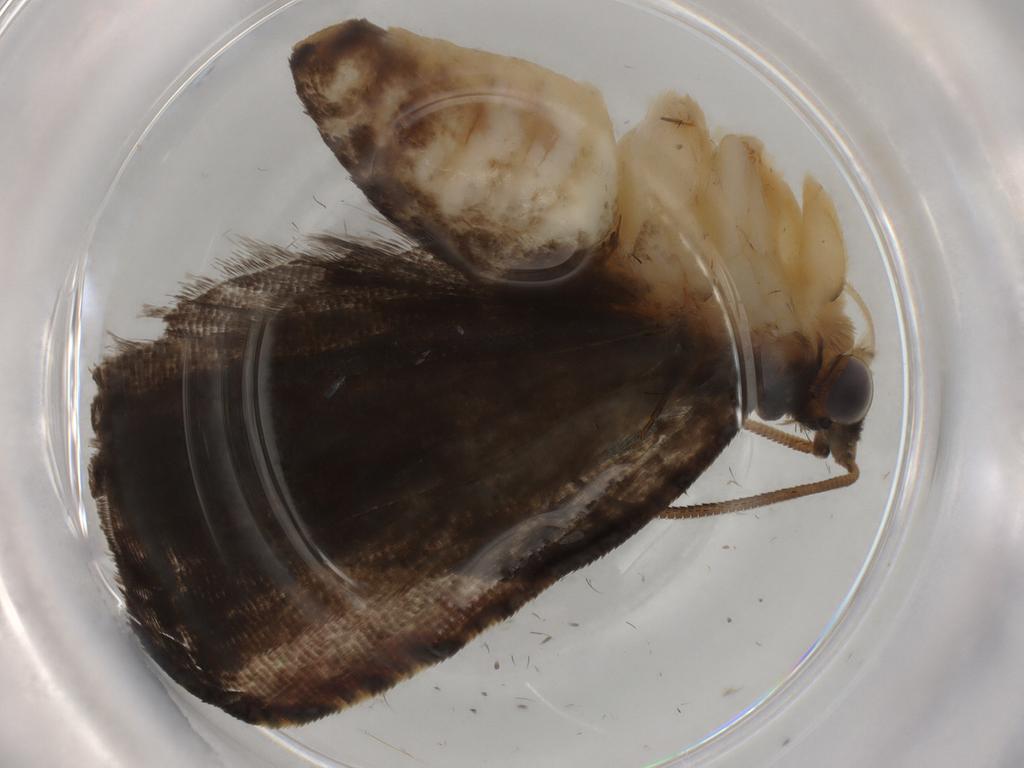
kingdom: Animalia
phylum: Arthropoda
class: Insecta
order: Lepidoptera
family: Tortricidae
